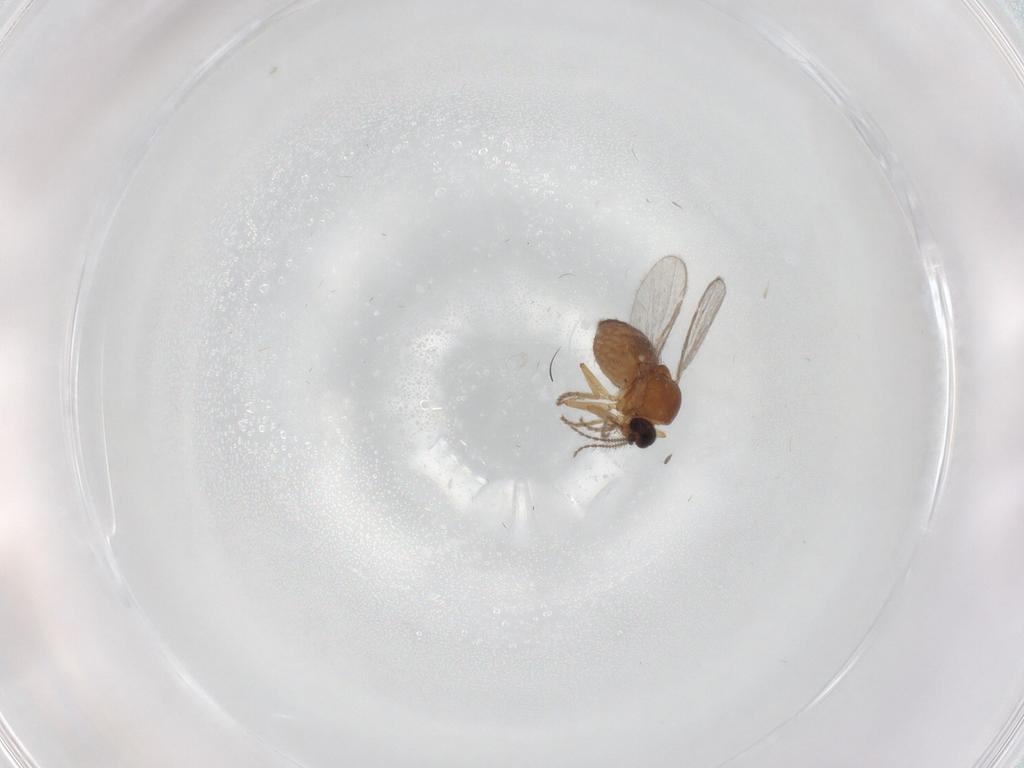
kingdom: Animalia
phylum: Arthropoda
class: Insecta
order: Diptera
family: Ceratopogonidae
